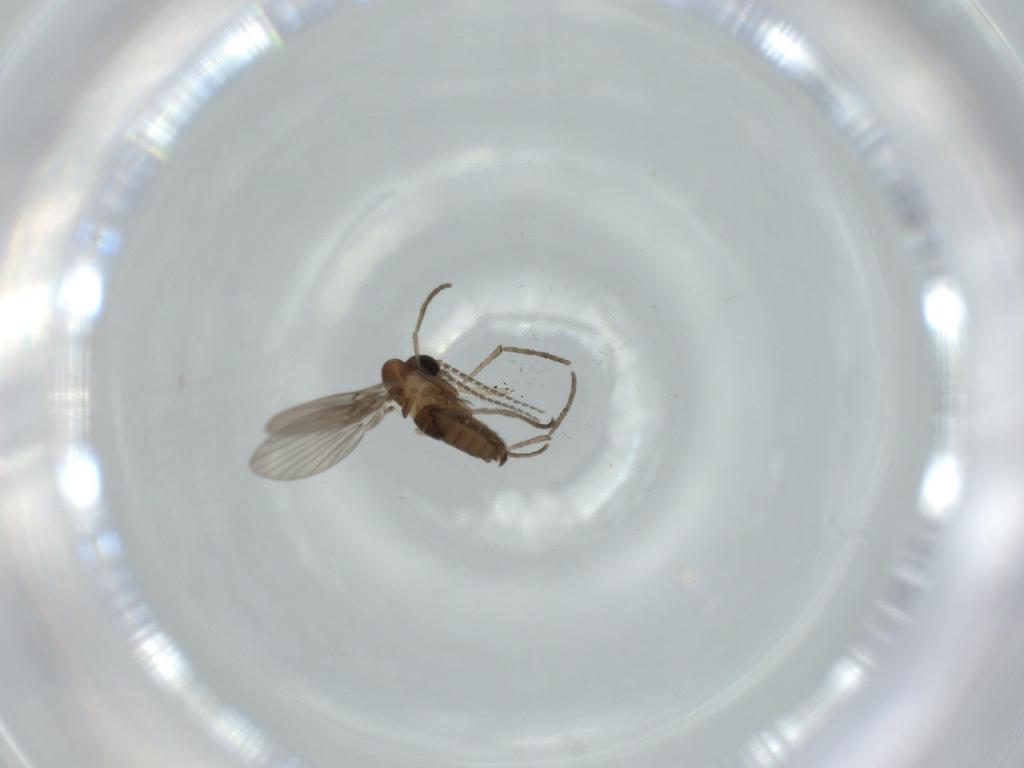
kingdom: Animalia
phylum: Arthropoda
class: Insecta
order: Diptera
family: Psychodidae
